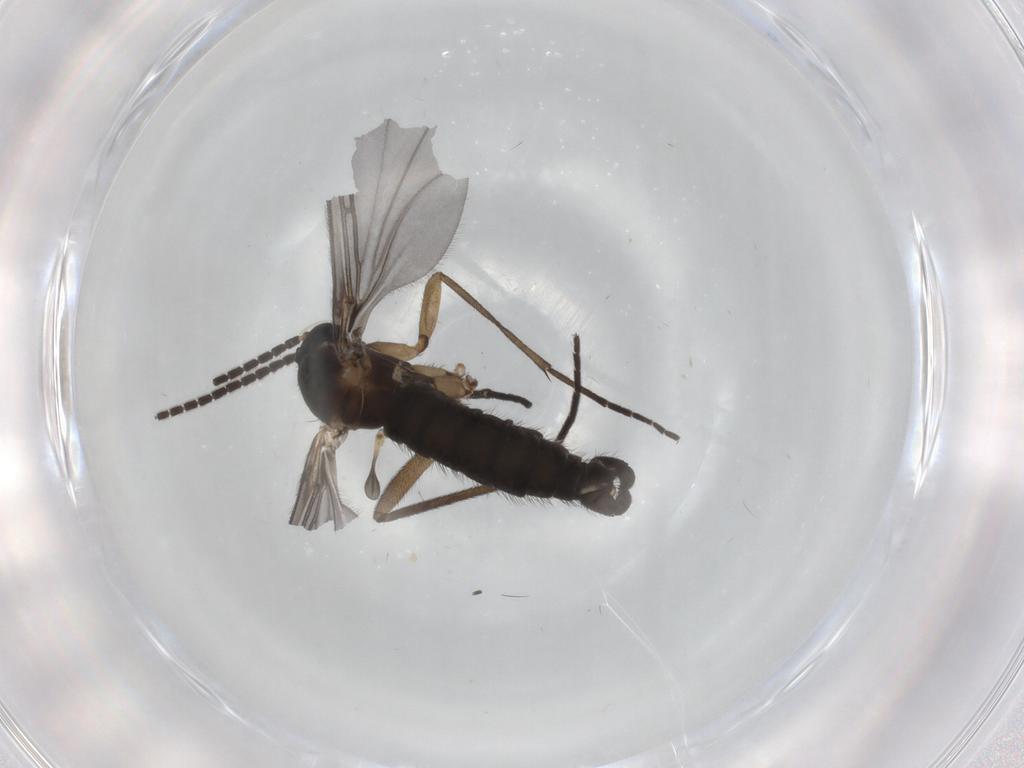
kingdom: Animalia
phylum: Arthropoda
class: Insecta
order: Diptera
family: Sciaridae
